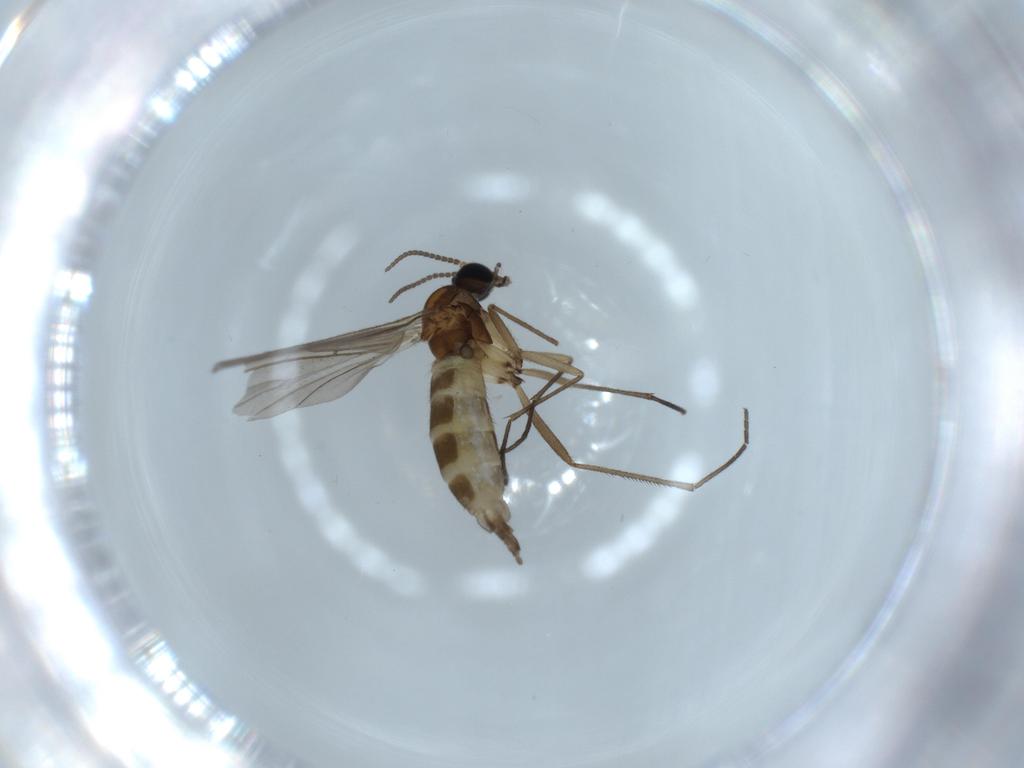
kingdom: Animalia
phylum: Arthropoda
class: Insecta
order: Diptera
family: Sciaridae
